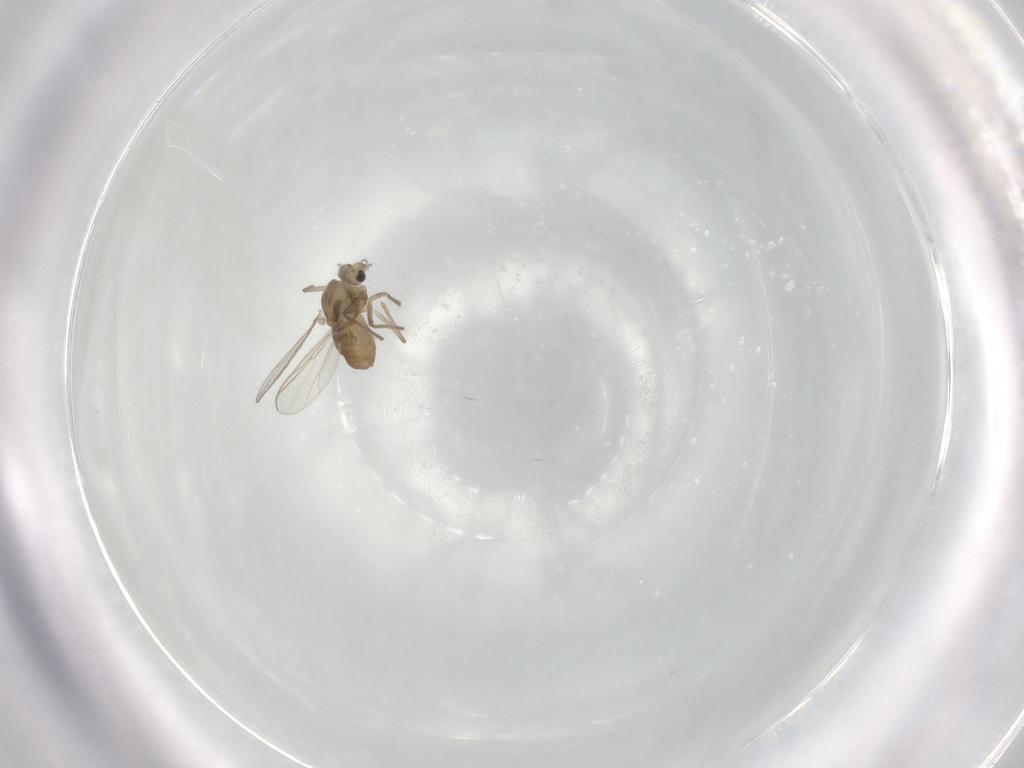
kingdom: Animalia
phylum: Arthropoda
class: Insecta
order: Diptera
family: Chironomidae
